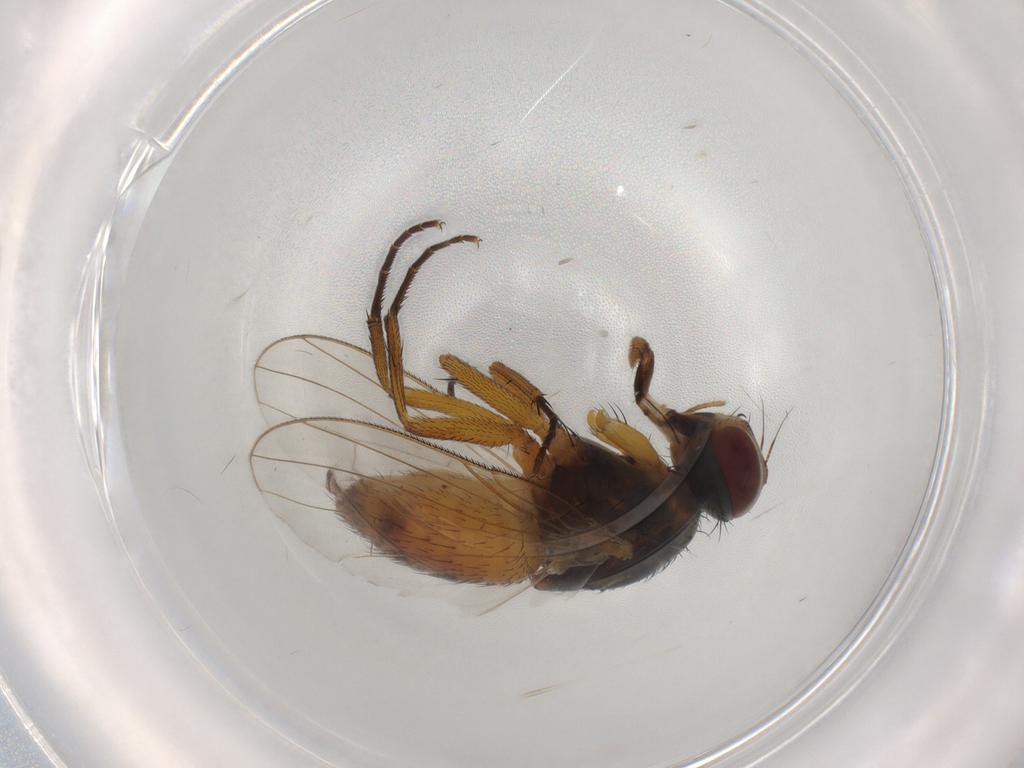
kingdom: Animalia
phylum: Arthropoda
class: Insecta
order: Diptera
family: Muscidae
